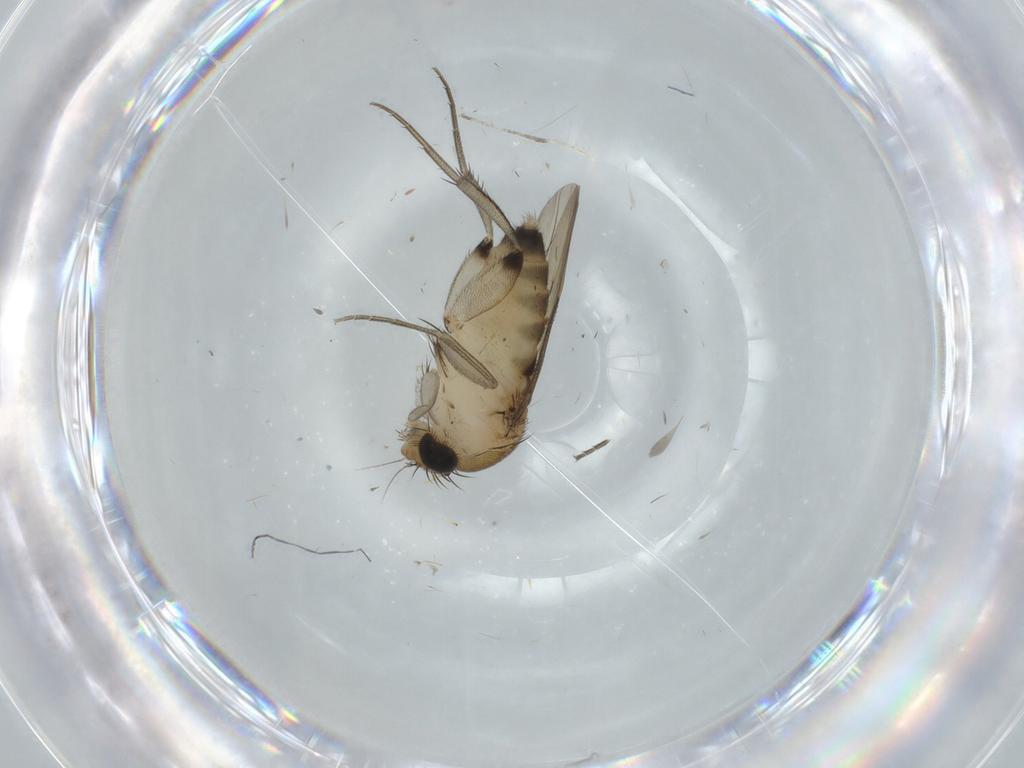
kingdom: Animalia
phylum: Arthropoda
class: Insecta
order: Diptera
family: Phoridae
